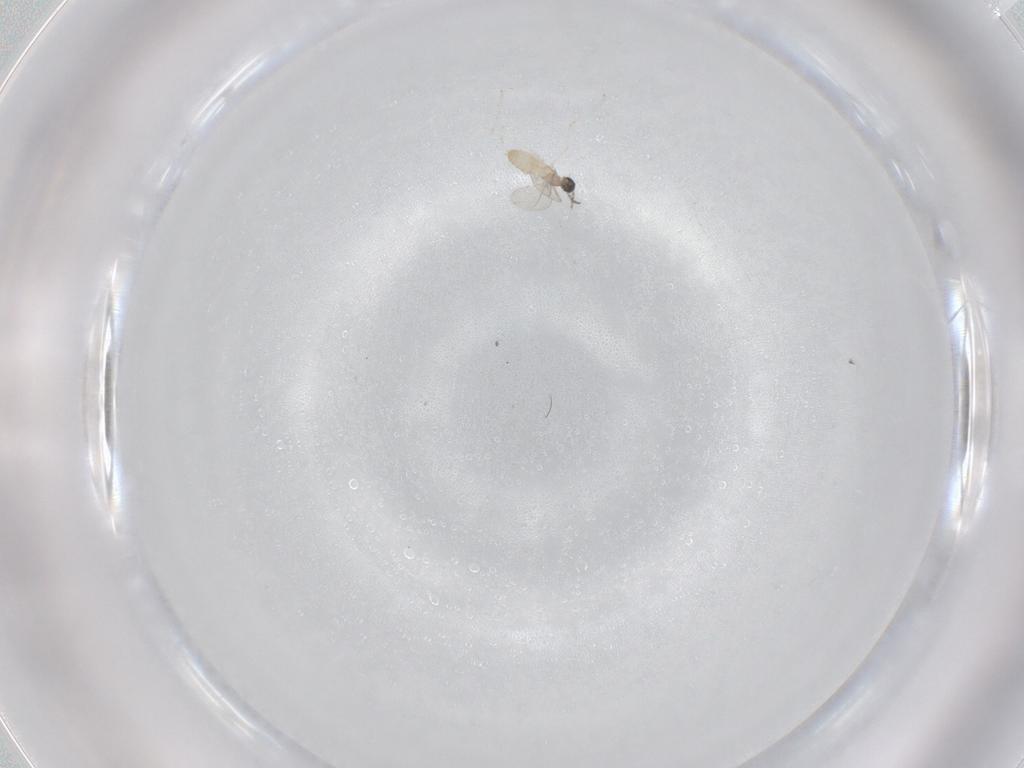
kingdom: Animalia
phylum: Arthropoda
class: Insecta
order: Diptera
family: Cecidomyiidae
